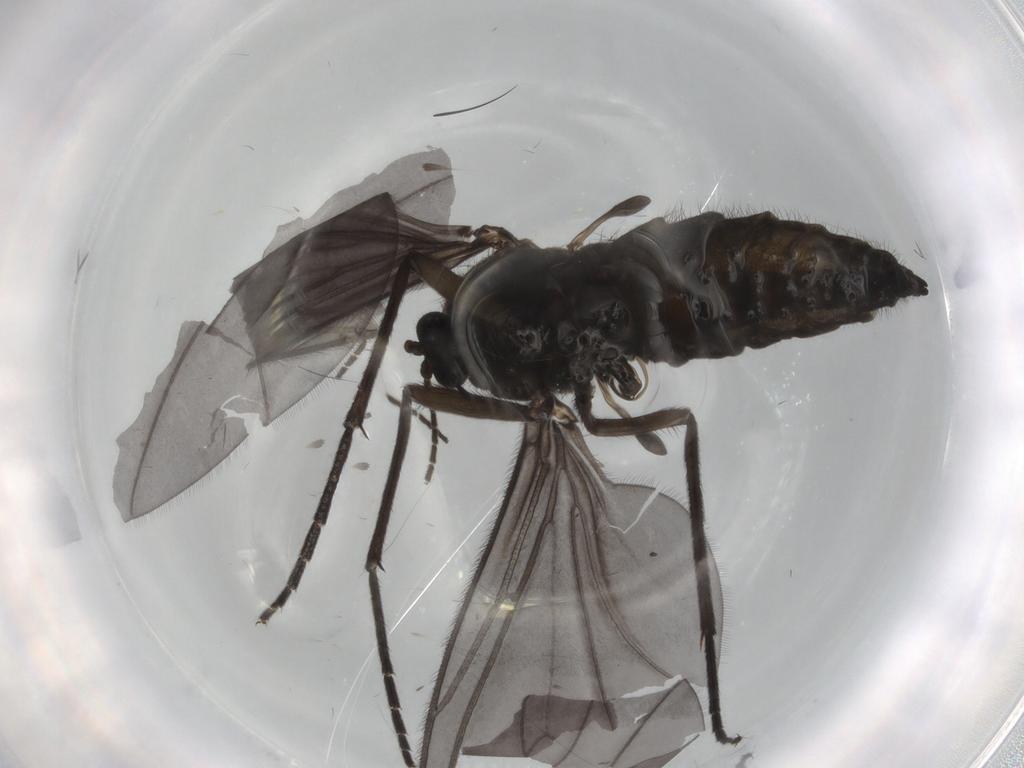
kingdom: Animalia
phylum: Arthropoda
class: Insecta
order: Diptera
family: Sciaridae
